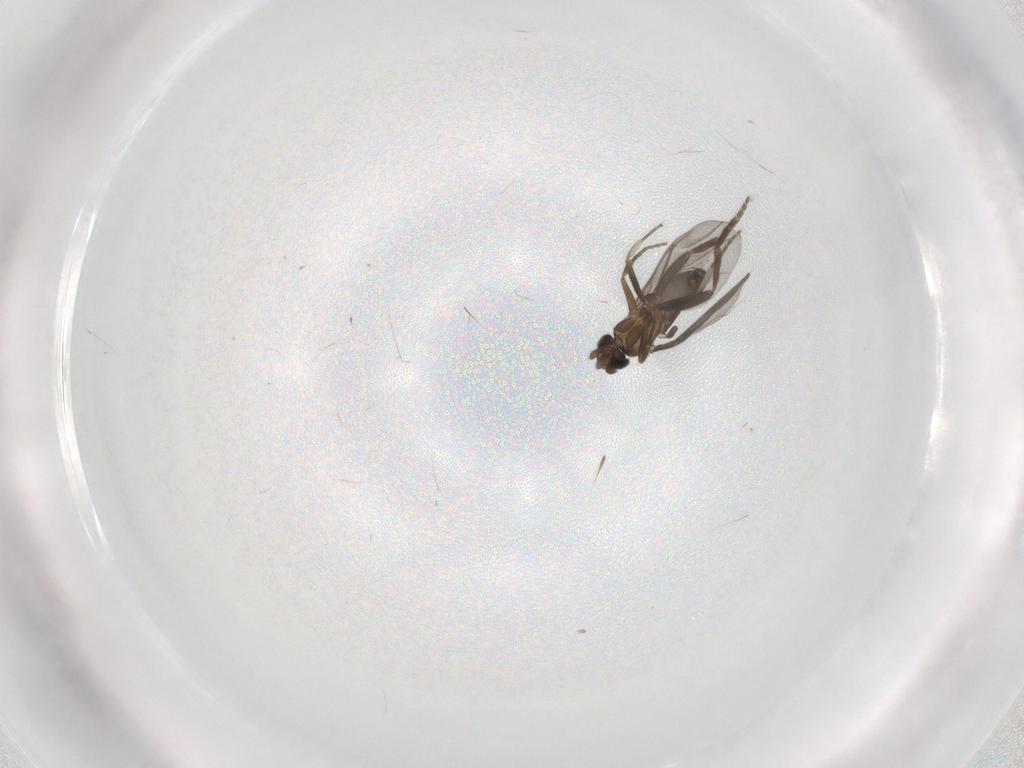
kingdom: Animalia
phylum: Arthropoda
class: Insecta
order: Diptera
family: Phoridae
